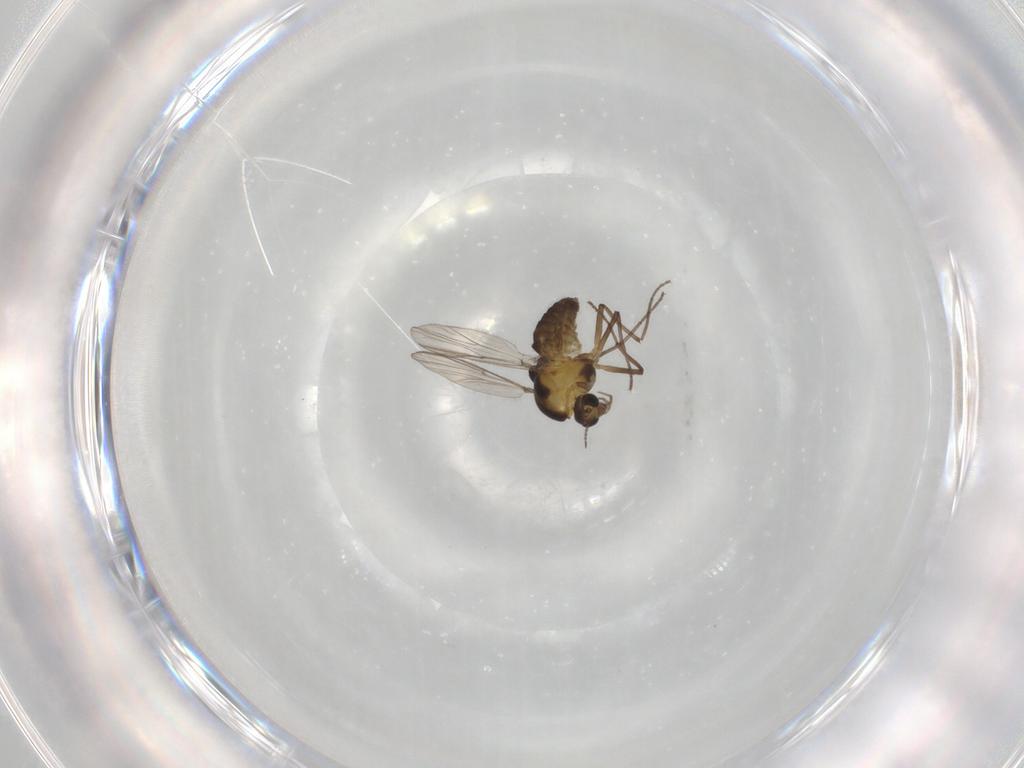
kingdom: Animalia
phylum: Arthropoda
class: Insecta
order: Diptera
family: Chironomidae
